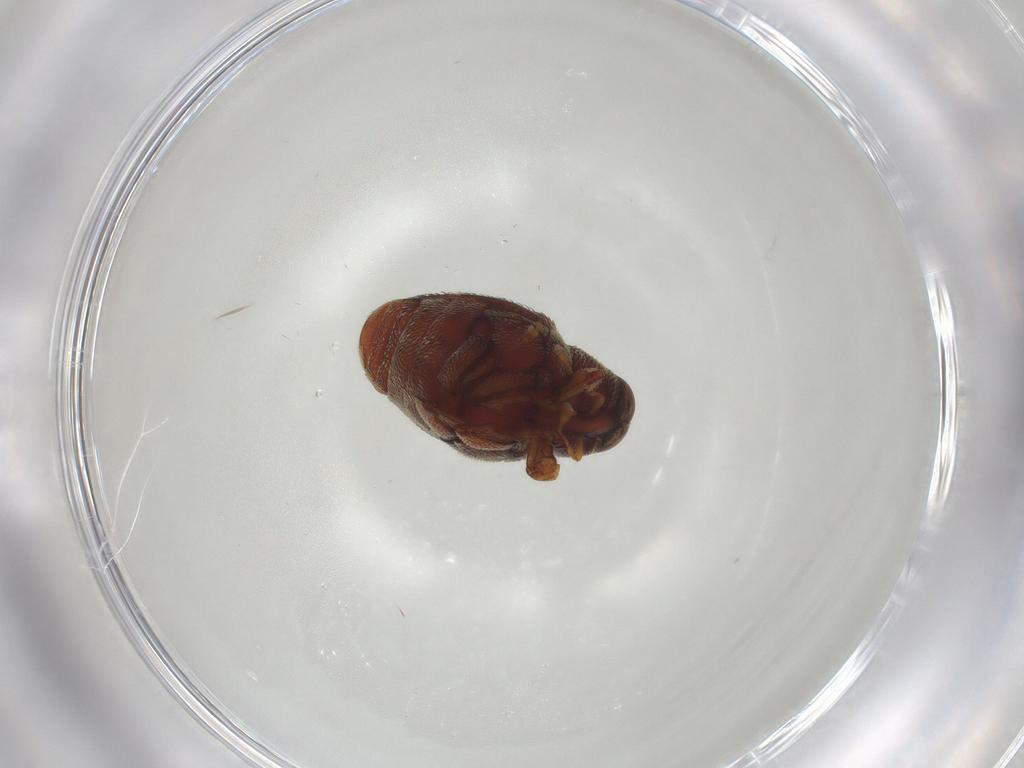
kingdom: Animalia
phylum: Arthropoda
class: Insecta
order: Coleoptera
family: Curculionidae
